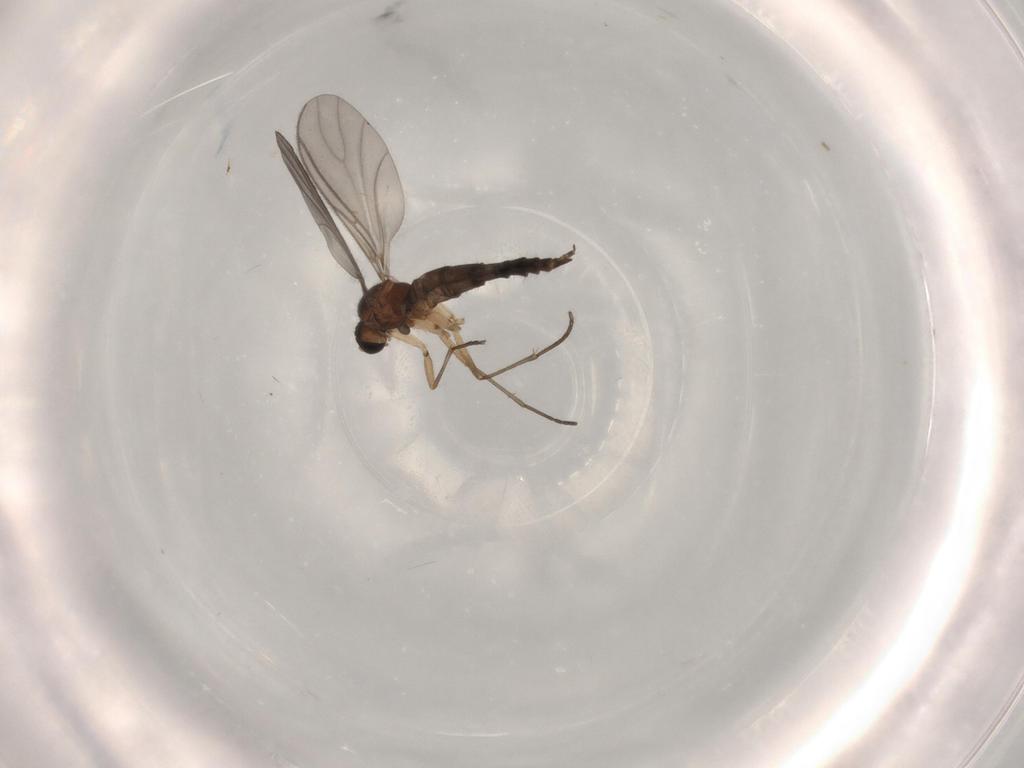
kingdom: Animalia
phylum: Arthropoda
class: Insecta
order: Diptera
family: Sciaridae
